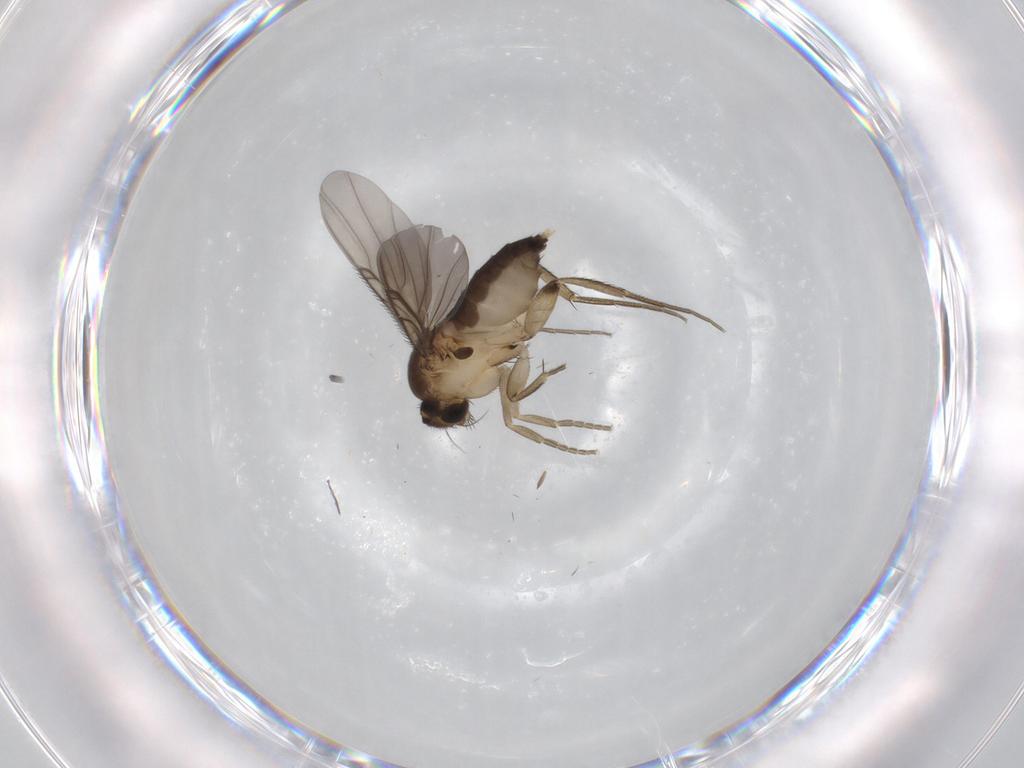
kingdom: Animalia
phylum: Arthropoda
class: Insecta
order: Diptera
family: Phoridae
